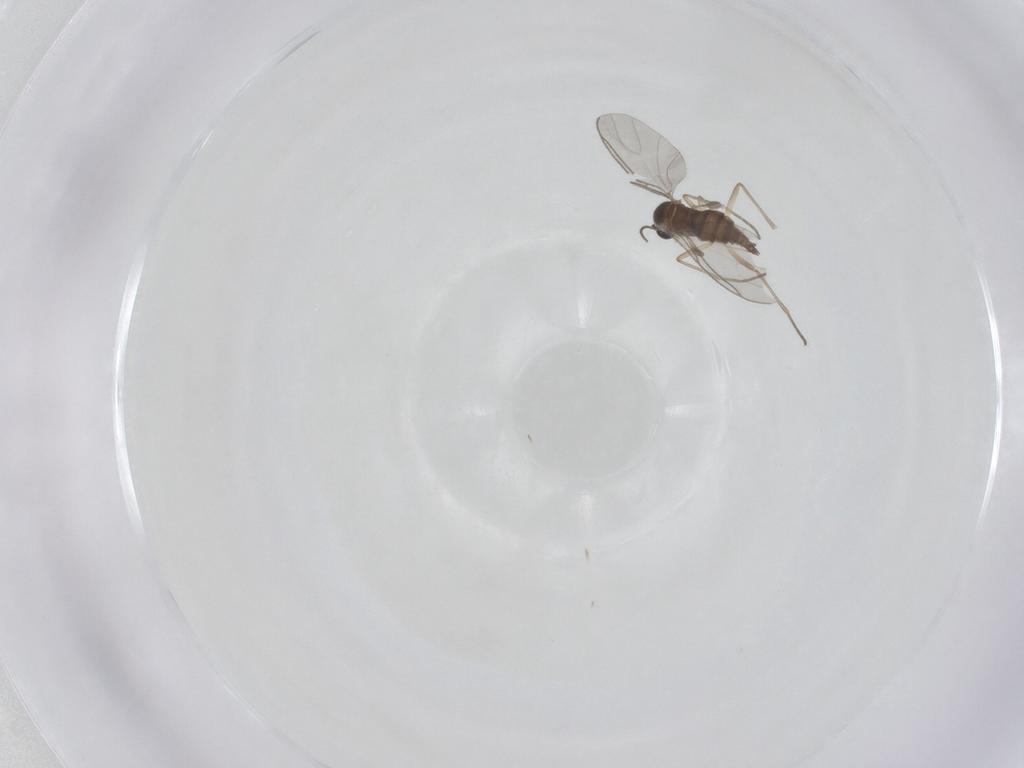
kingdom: Animalia
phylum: Arthropoda
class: Insecta
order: Diptera
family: Sciaridae
